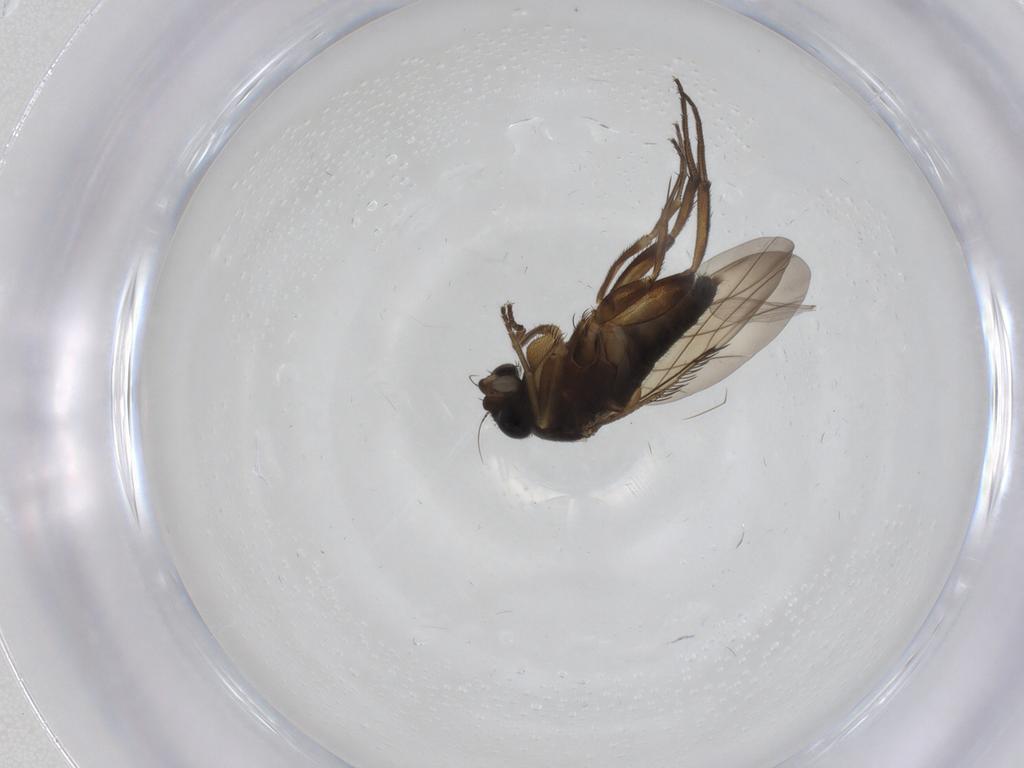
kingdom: Animalia
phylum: Arthropoda
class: Insecta
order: Diptera
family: Phoridae
